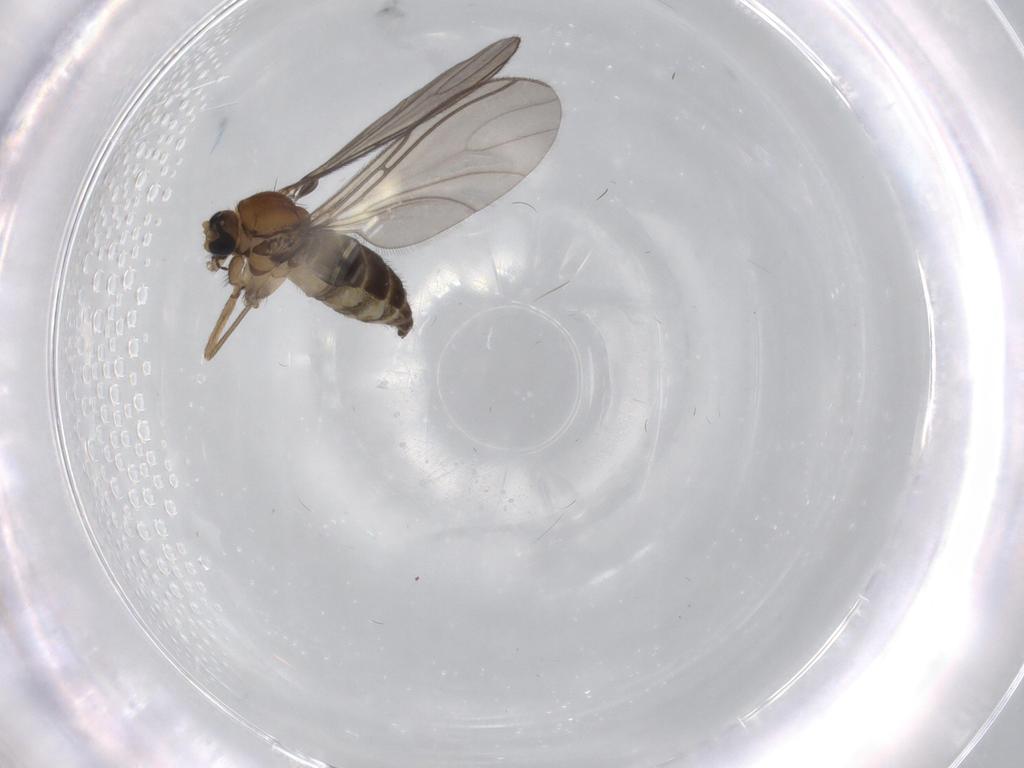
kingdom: Animalia
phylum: Arthropoda
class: Insecta
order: Diptera
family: Sciaridae
